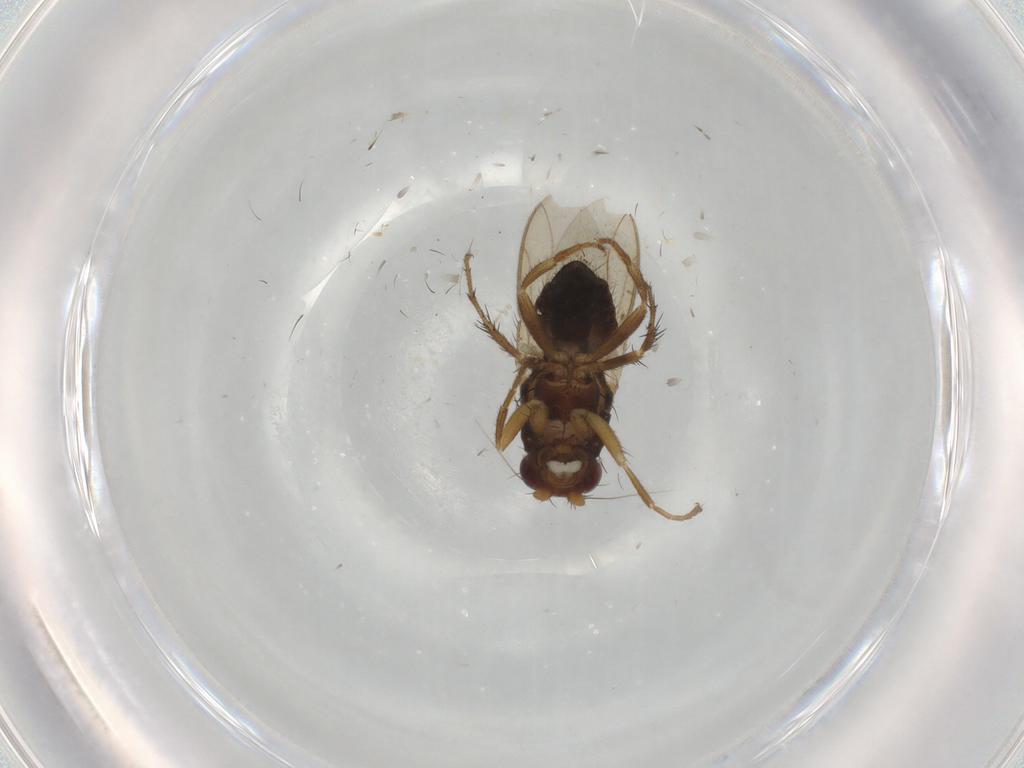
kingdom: Animalia
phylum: Arthropoda
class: Insecta
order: Diptera
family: Sphaeroceridae
